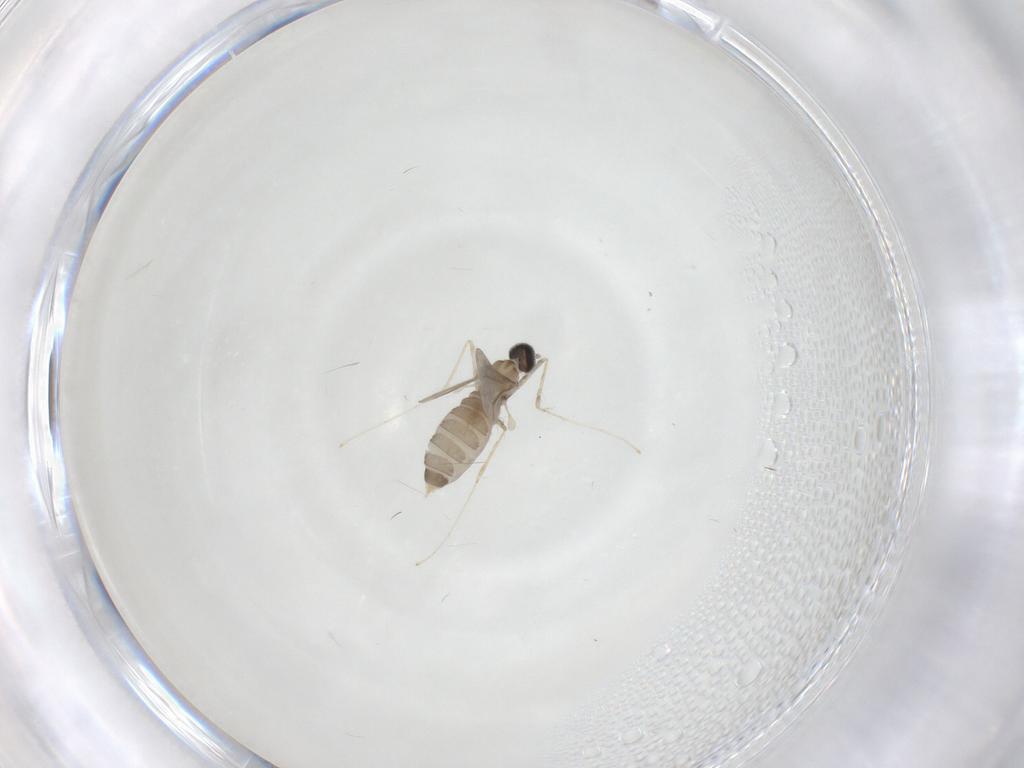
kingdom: Animalia
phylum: Arthropoda
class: Insecta
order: Diptera
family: Cecidomyiidae
